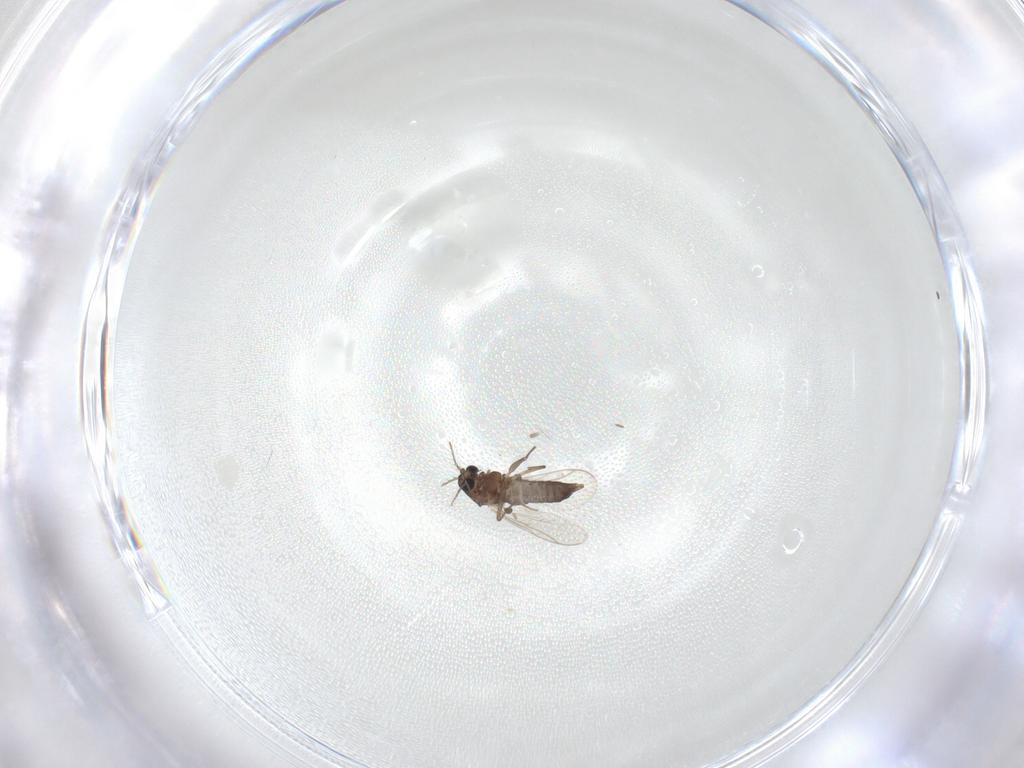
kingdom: Animalia
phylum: Arthropoda
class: Insecta
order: Diptera
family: Chironomidae
